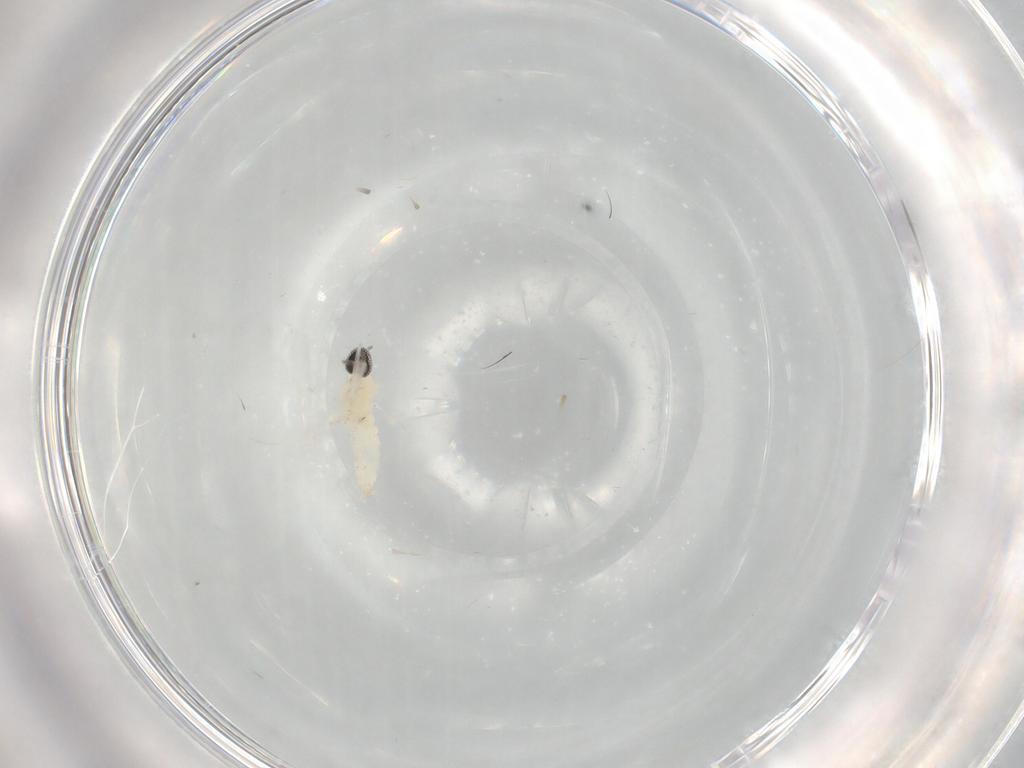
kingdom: Animalia
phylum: Arthropoda
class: Insecta
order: Diptera
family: Cecidomyiidae
